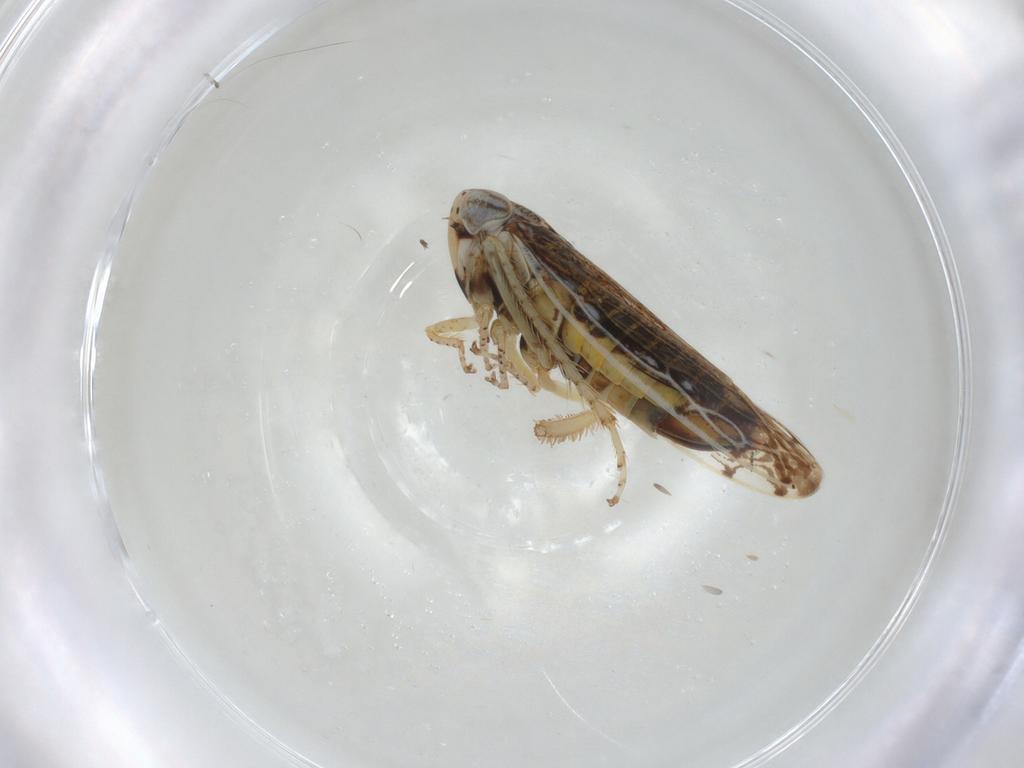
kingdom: Animalia
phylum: Arthropoda
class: Insecta
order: Hemiptera
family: Cicadellidae
